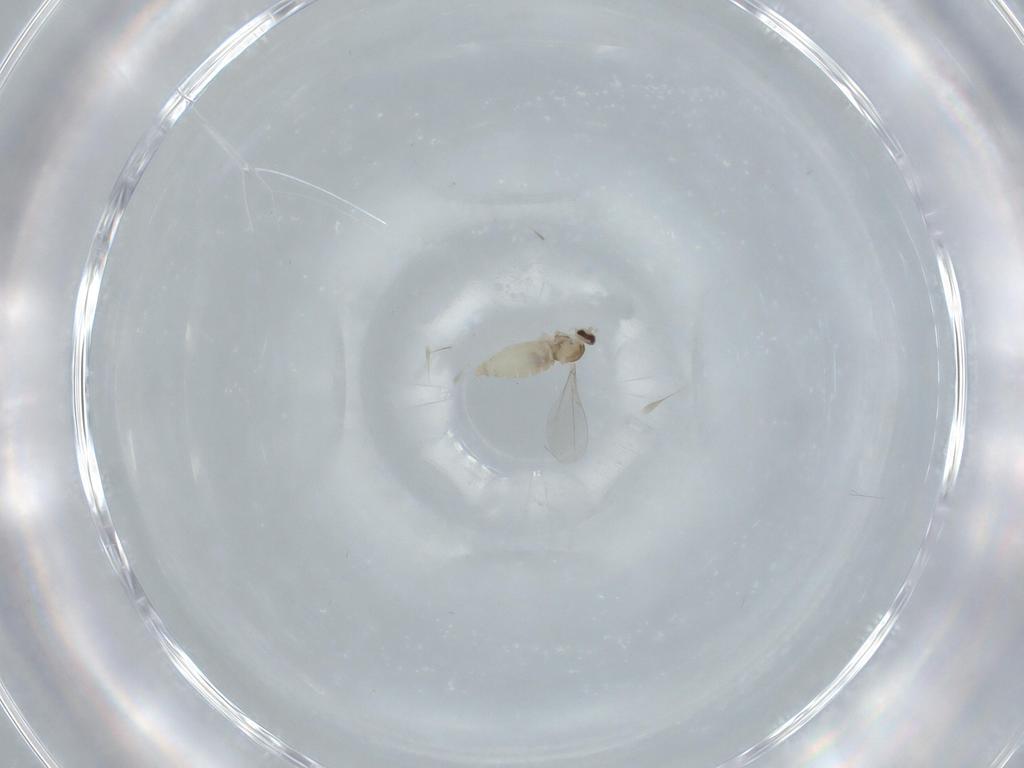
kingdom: Animalia
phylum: Arthropoda
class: Insecta
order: Diptera
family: Cecidomyiidae
